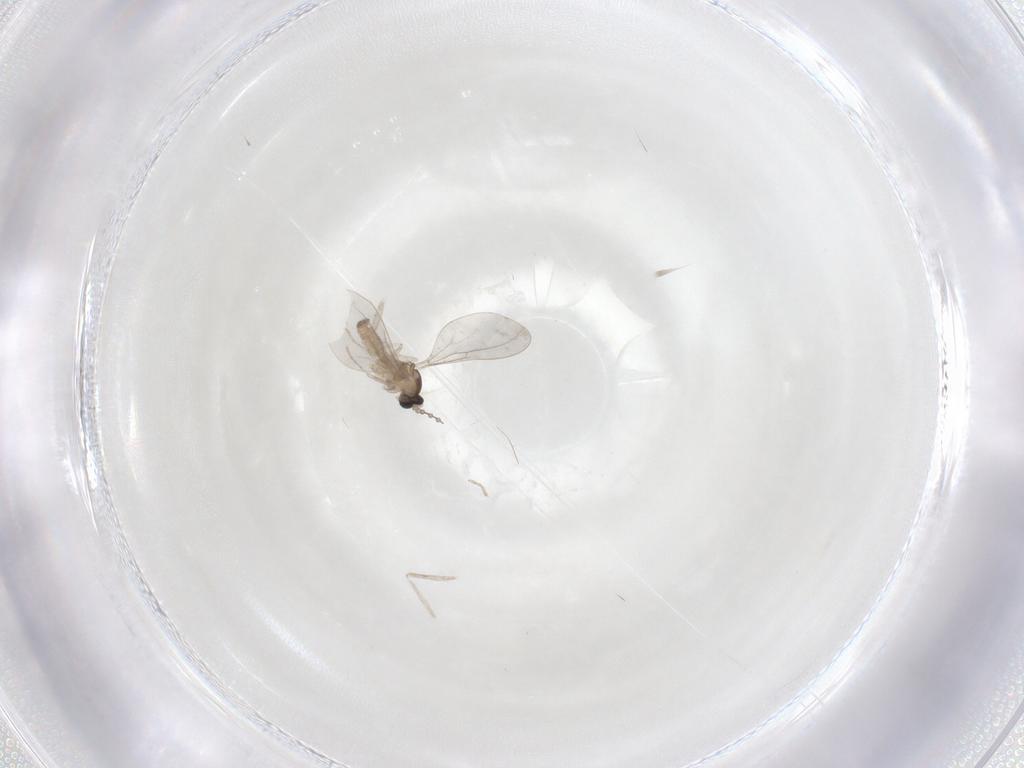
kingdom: Animalia
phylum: Arthropoda
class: Insecta
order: Diptera
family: Cecidomyiidae
